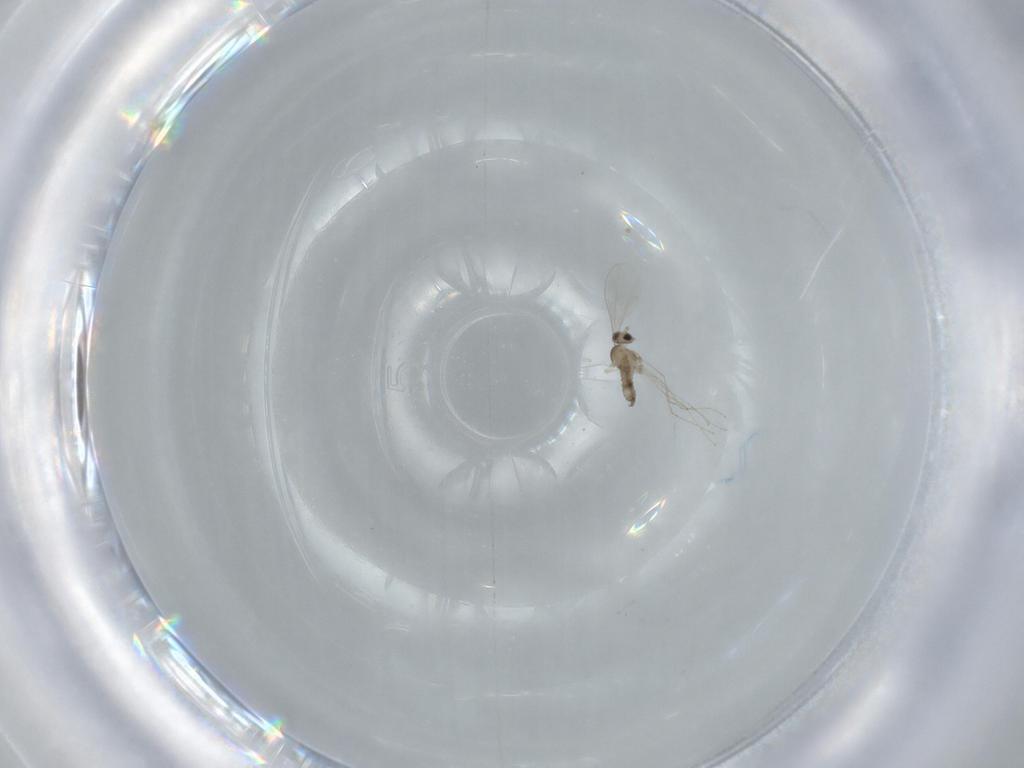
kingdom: Animalia
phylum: Arthropoda
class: Insecta
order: Diptera
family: Cecidomyiidae
